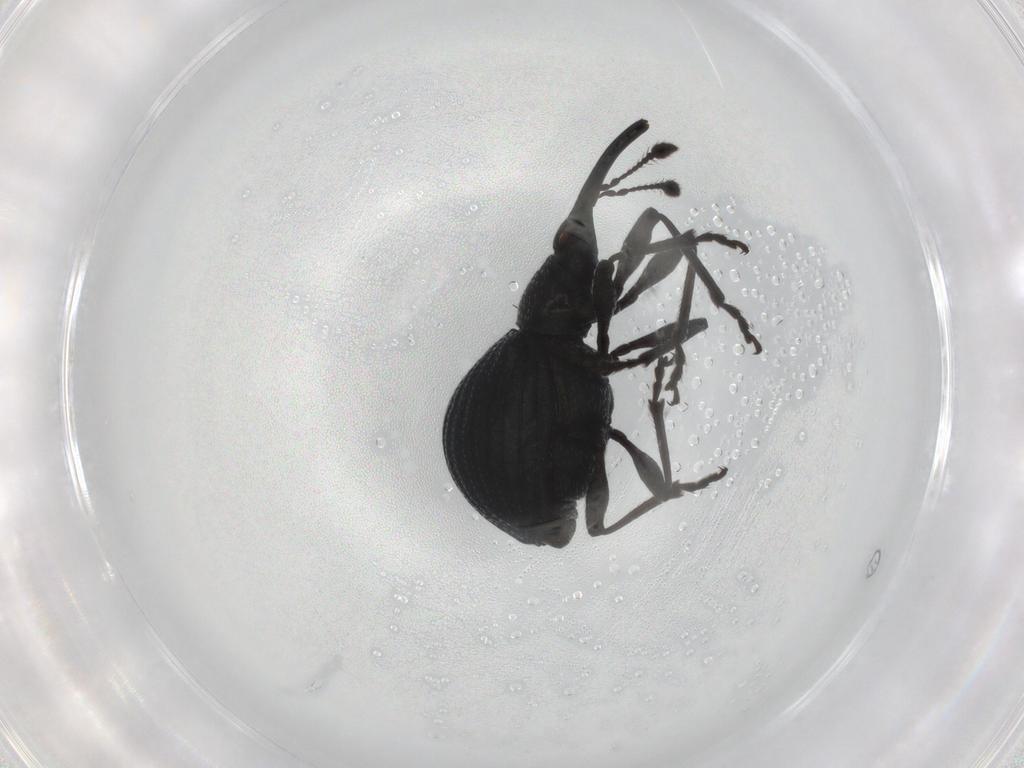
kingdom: Animalia
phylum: Arthropoda
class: Insecta
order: Coleoptera
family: Brentidae
